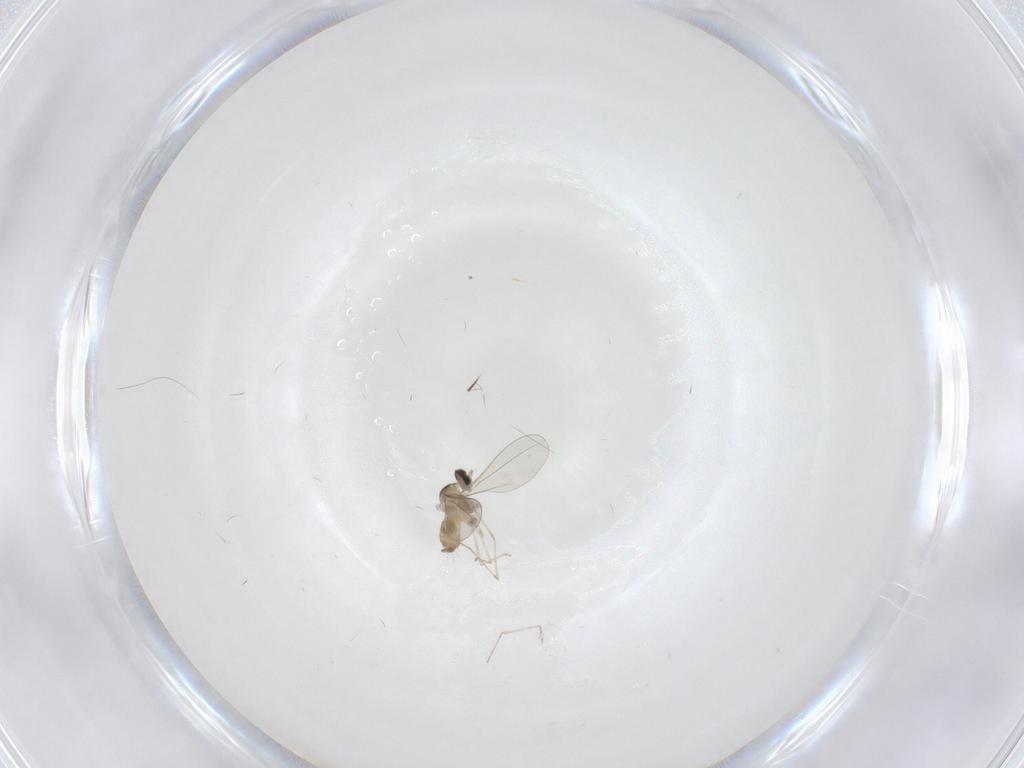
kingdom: Animalia
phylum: Arthropoda
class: Insecta
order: Diptera
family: Cecidomyiidae
